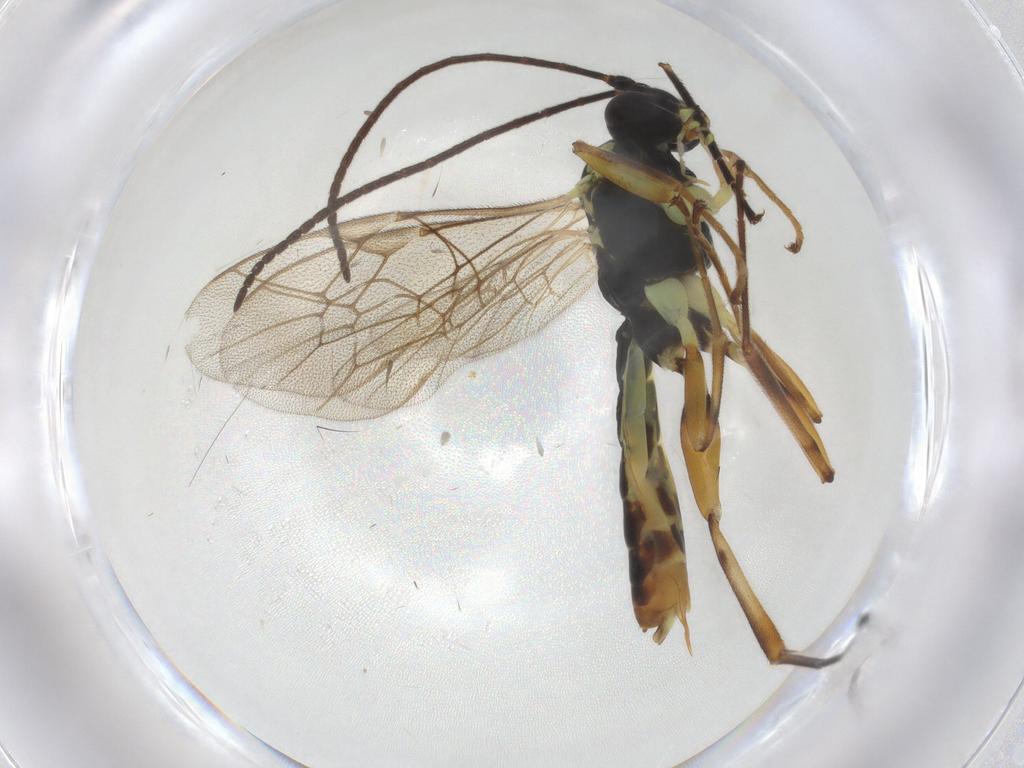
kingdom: Animalia
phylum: Arthropoda
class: Insecta
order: Hymenoptera
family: Ichneumonidae
